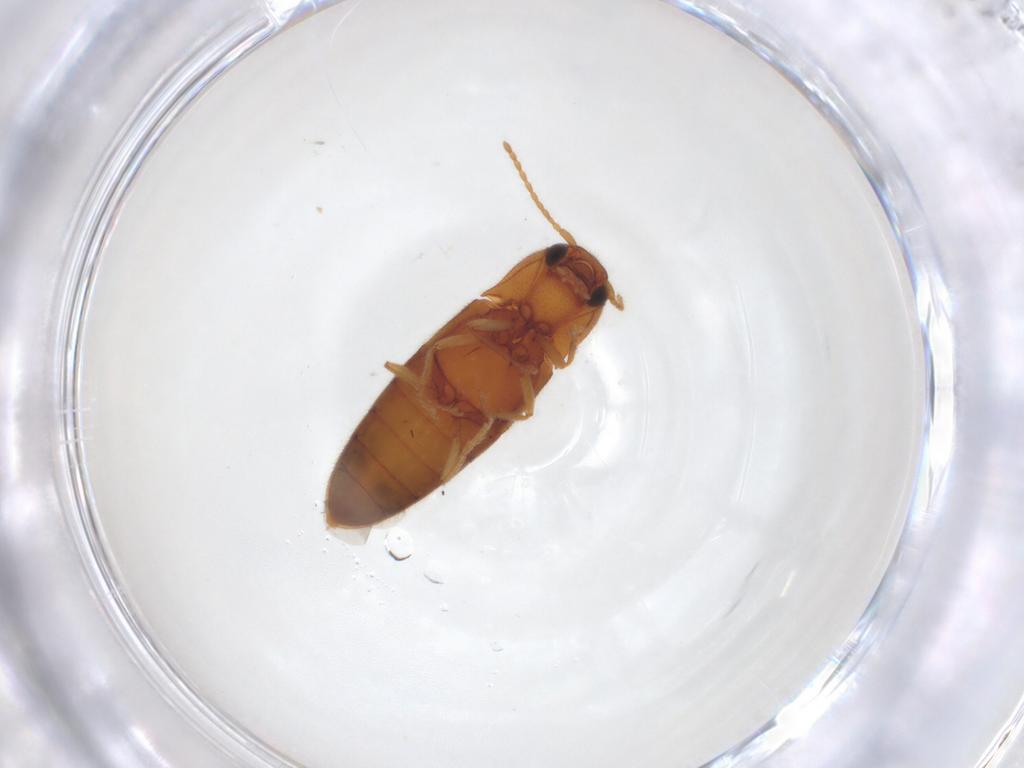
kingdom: Animalia
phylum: Arthropoda
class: Insecta
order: Coleoptera
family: Elateridae
